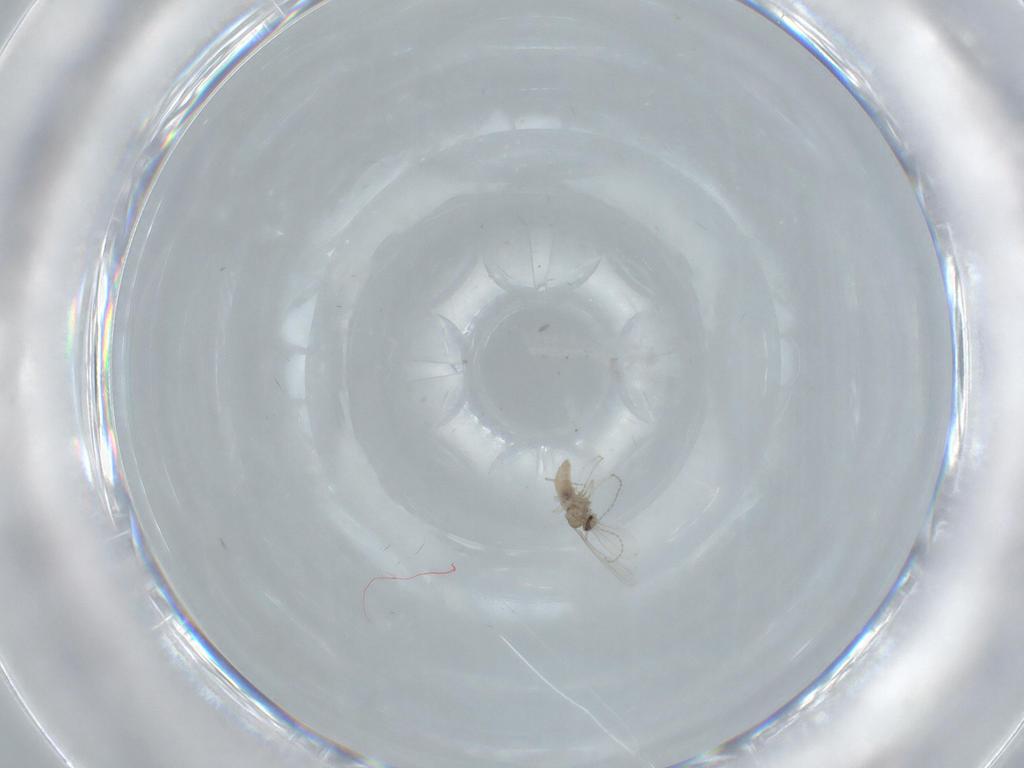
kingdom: Animalia
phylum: Arthropoda
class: Insecta
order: Diptera
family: Cecidomyiidae
